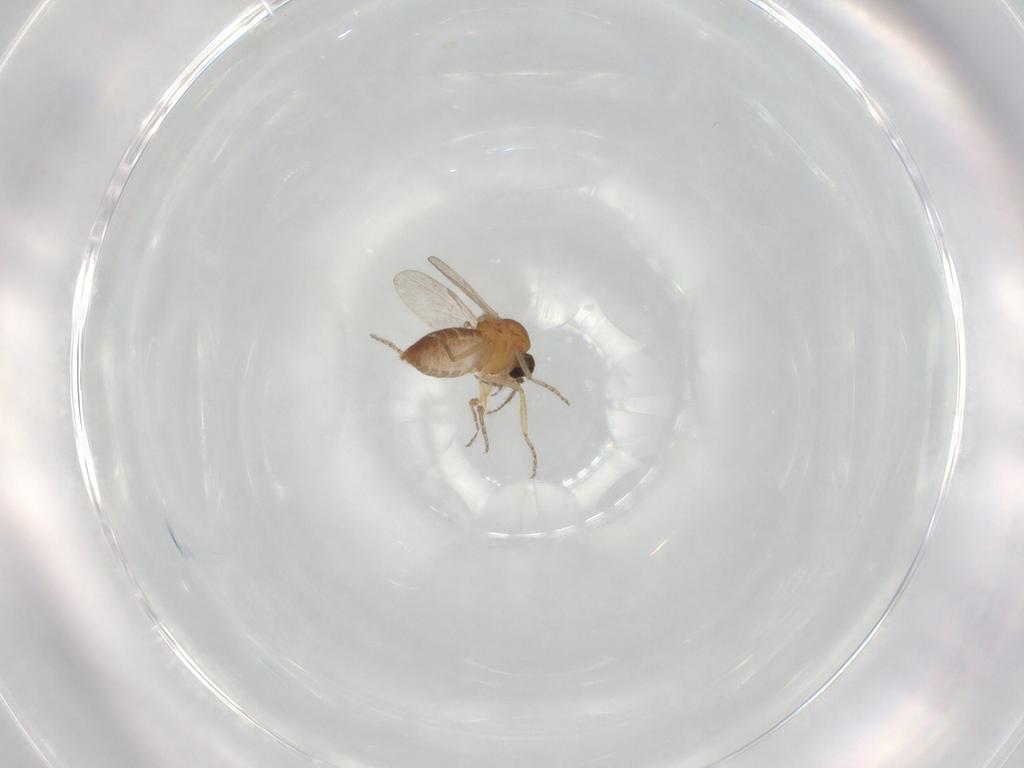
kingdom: Animalia
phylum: Arthropoda
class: Insecta
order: Diptera
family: Ceratopogonidae
